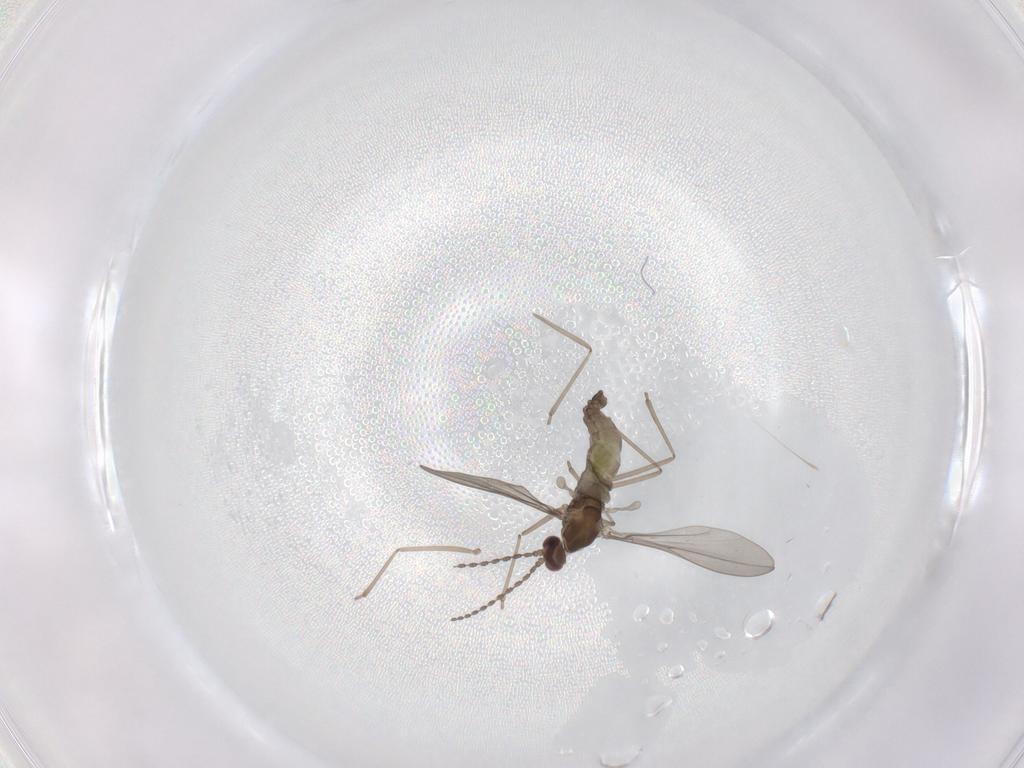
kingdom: Animalia
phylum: Arthropoda
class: Insecta
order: Diptera
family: Cecidomyiidae
